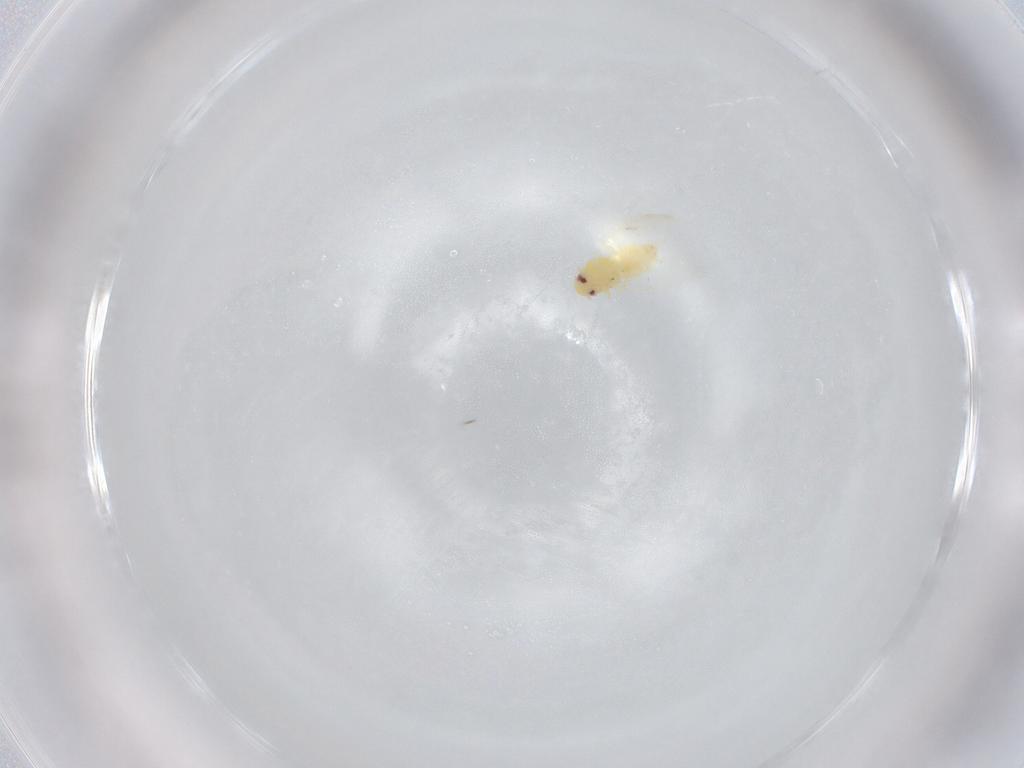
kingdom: Animalia
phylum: Arthropoda
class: Insecta
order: Hemiptera
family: Aleyrodidae
